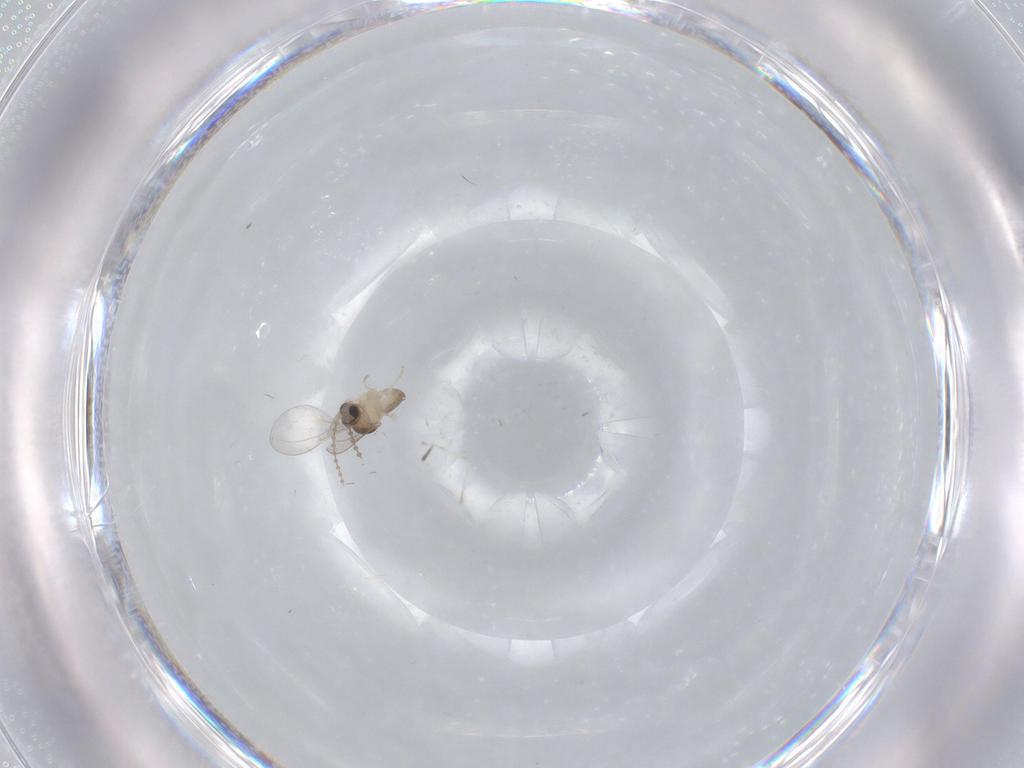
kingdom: Animalia
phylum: Arthropoda
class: Insecta
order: Diptera
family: Cecidomyiidae
